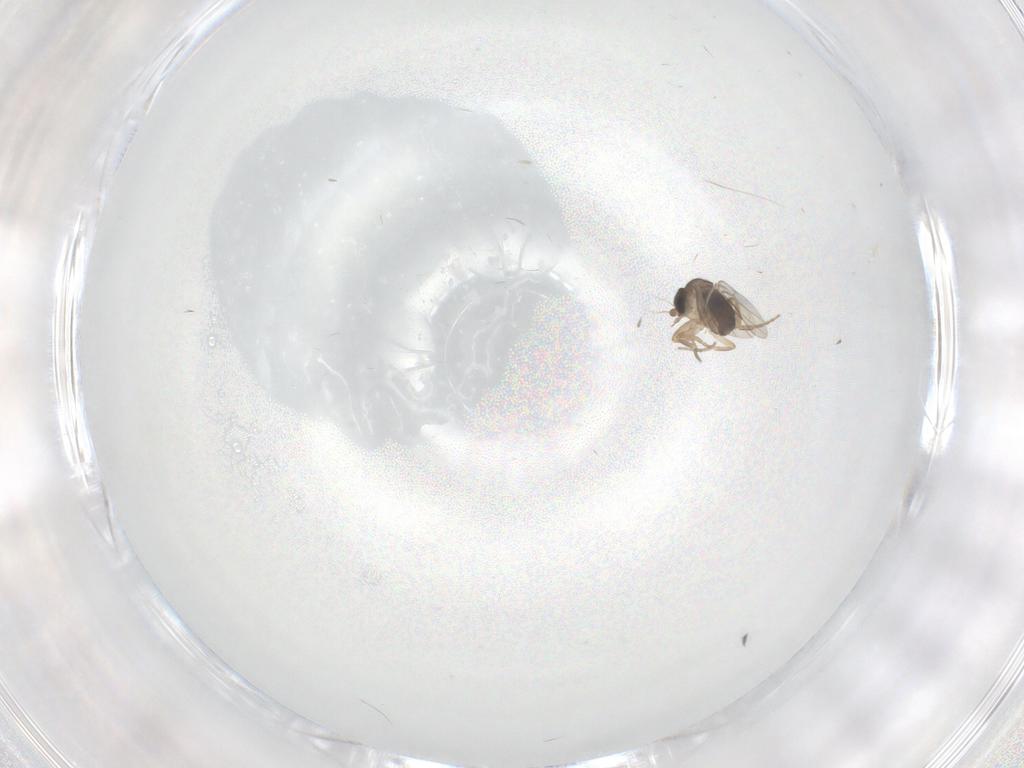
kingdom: Animalia
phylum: Arthropoda
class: Insecta
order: Diptera
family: Phoridae
